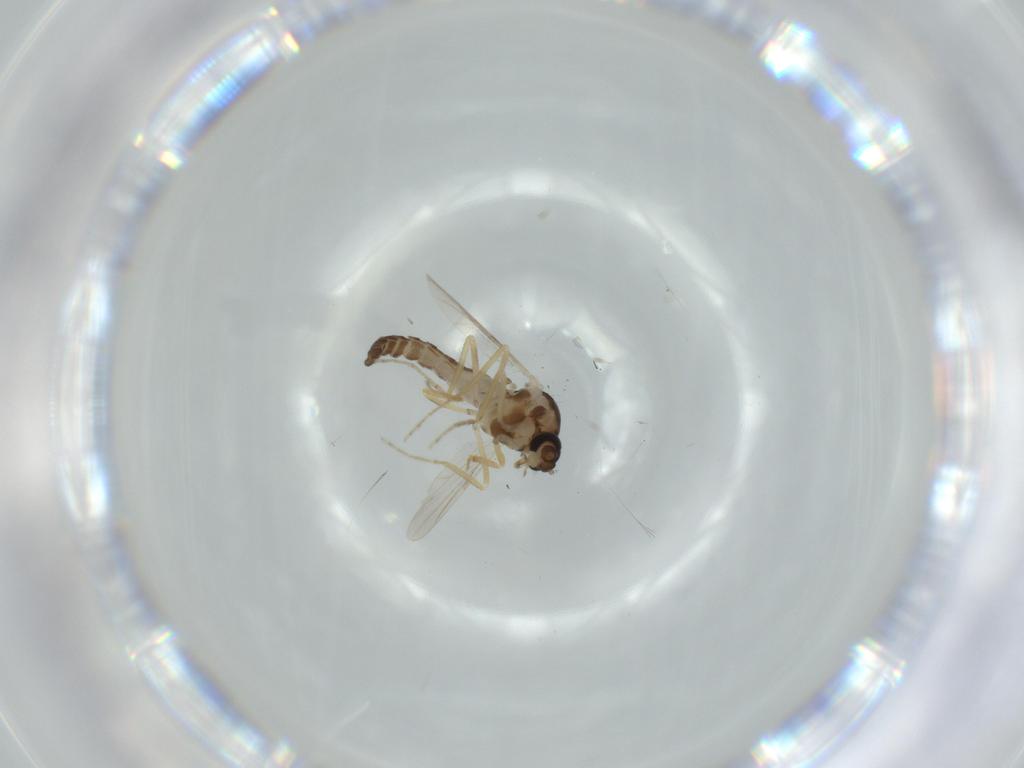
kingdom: Animalia
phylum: Arthropoda
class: Insecta
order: Diptera
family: Ceratopogonidae
